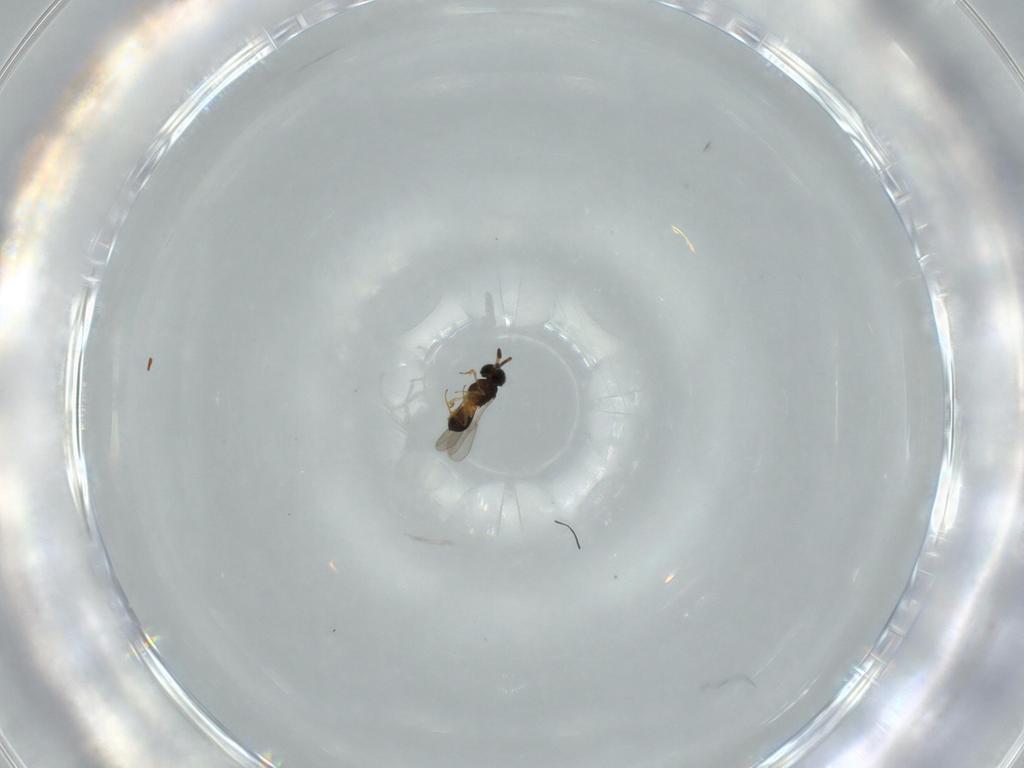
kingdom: Animalia
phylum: Arthropoda
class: Insecta
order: Hymenoptera
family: Scelionidae
